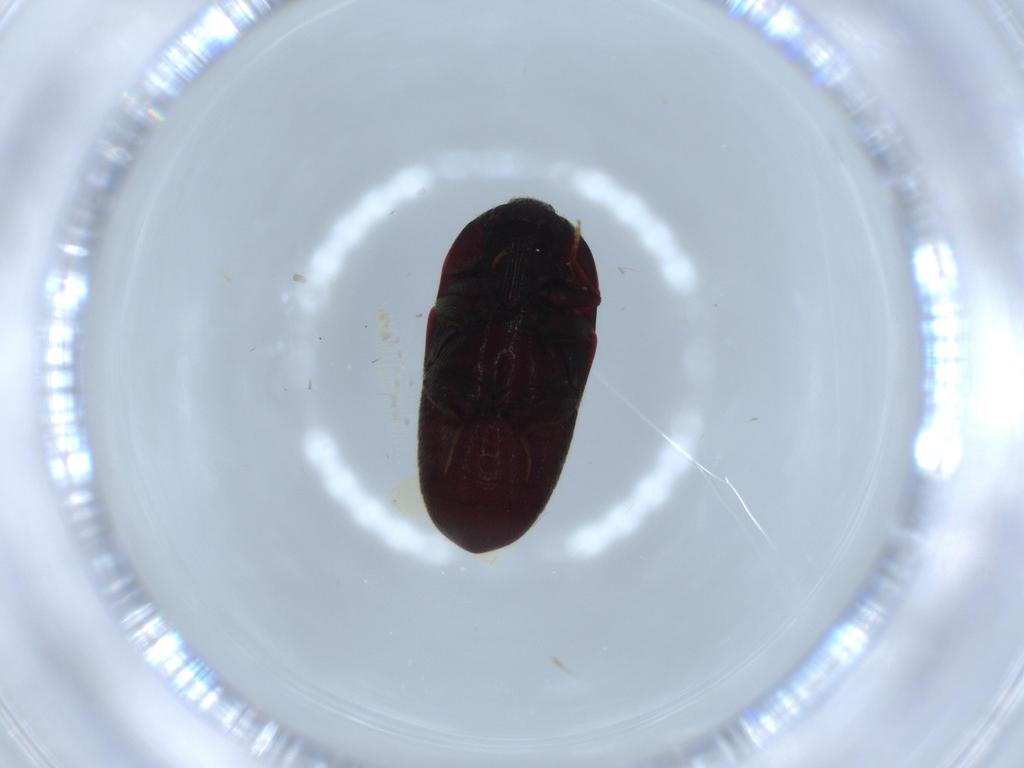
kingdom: Animalia
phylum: Arthropoda
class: Insecta
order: Coleoptera
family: Throscidae
